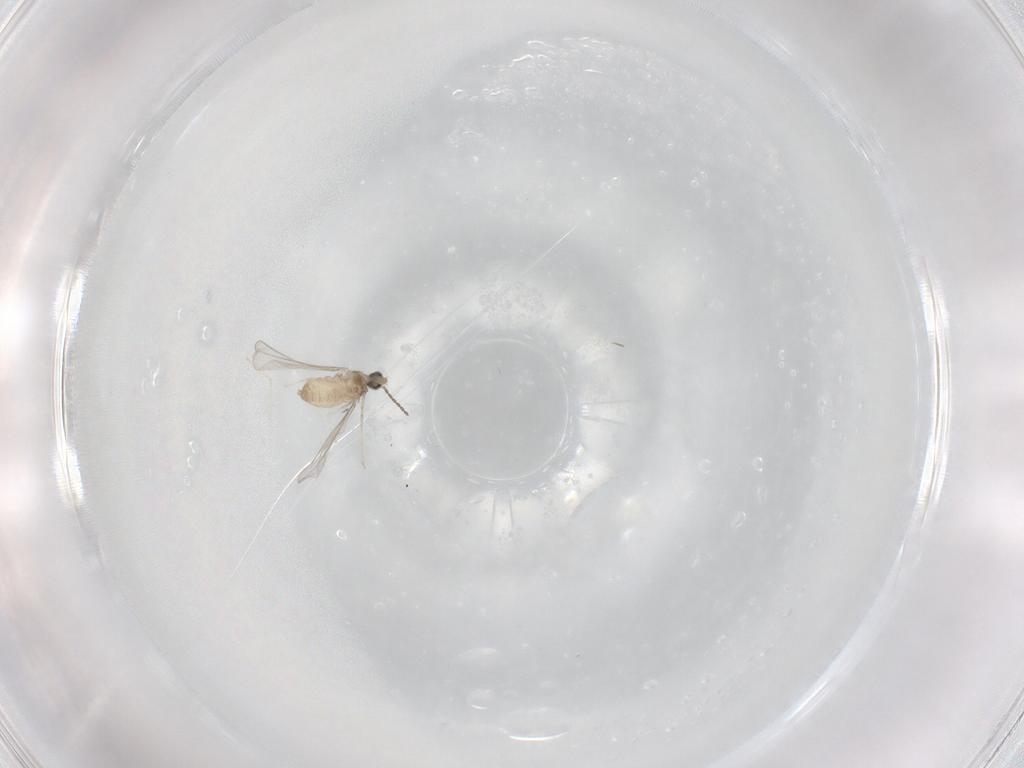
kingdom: Animalia
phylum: Arthropoda
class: Insecta
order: Diptera
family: Cecidomyiidae
